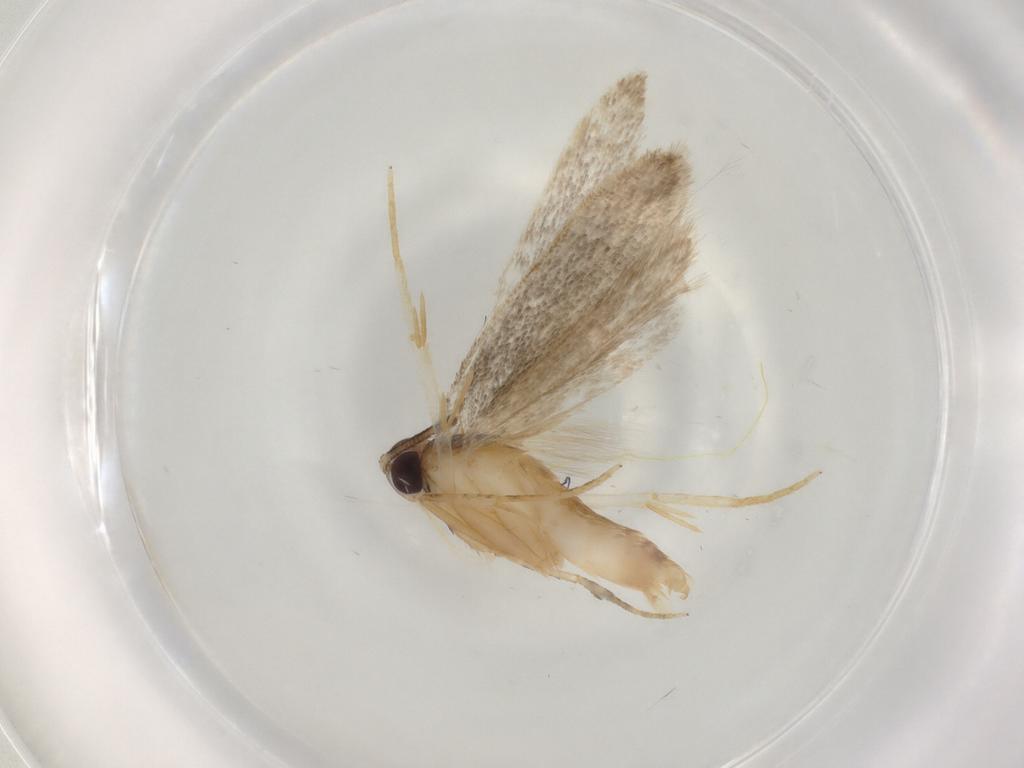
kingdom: Animalia
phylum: Arthropoda
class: Insecta
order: Lepidoptera
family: Autostichidae
